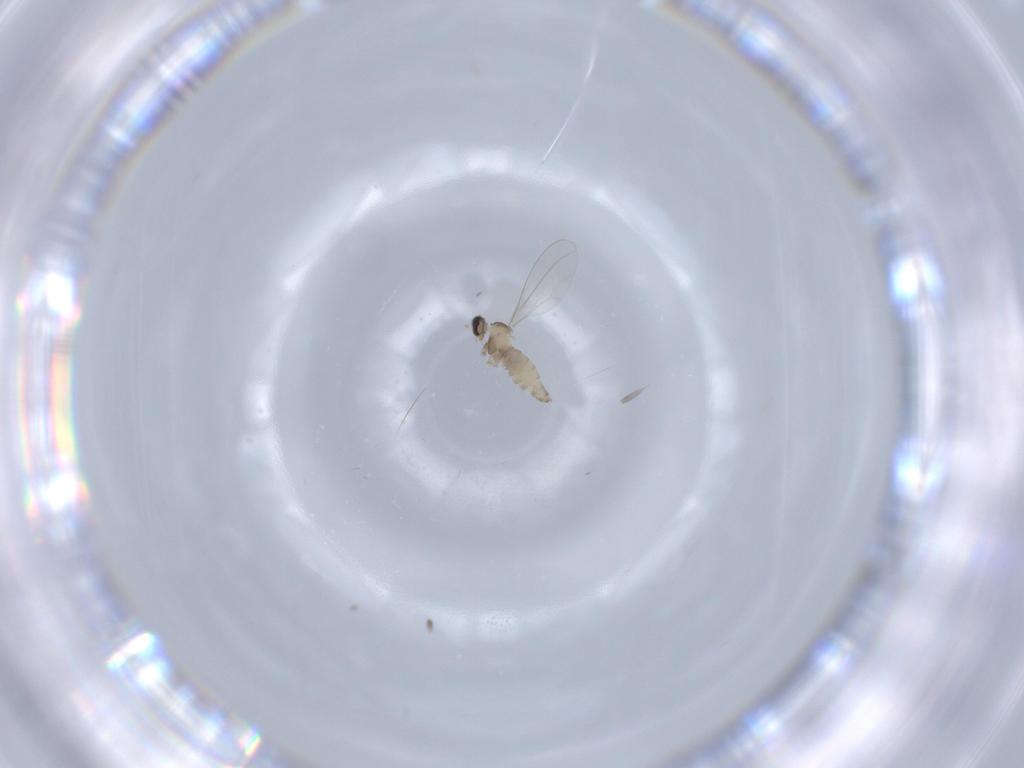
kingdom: Animalia
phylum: Arthropoda
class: Insecta
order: Diptera
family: Cecidomyiidae
